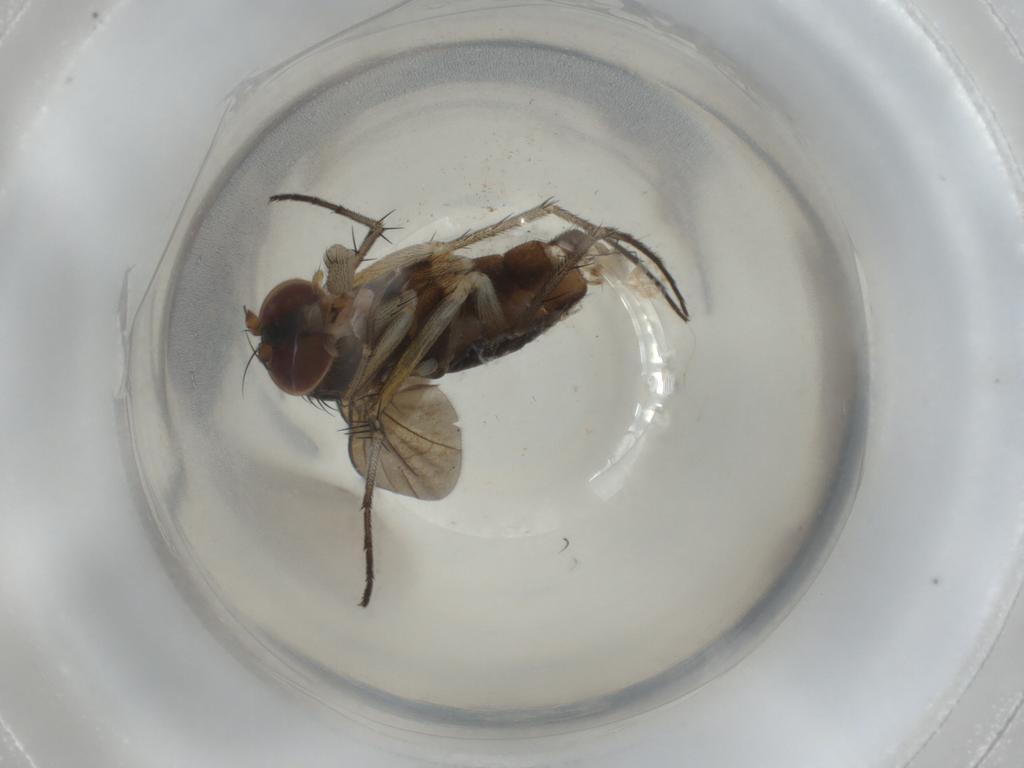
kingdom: Animalia
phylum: Arthropoda
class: Insecta
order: Diptera
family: Dolichopodidae
